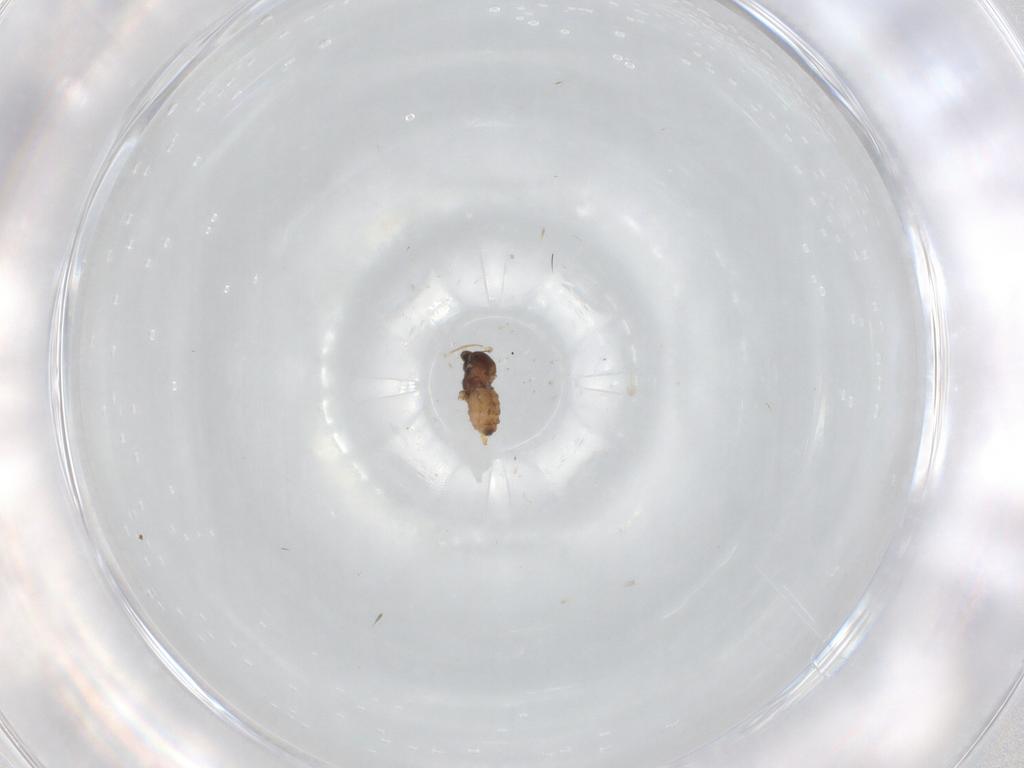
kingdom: Animalia
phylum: Arthropoda
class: Insecta
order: Diptera
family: Cecidomyiidae
